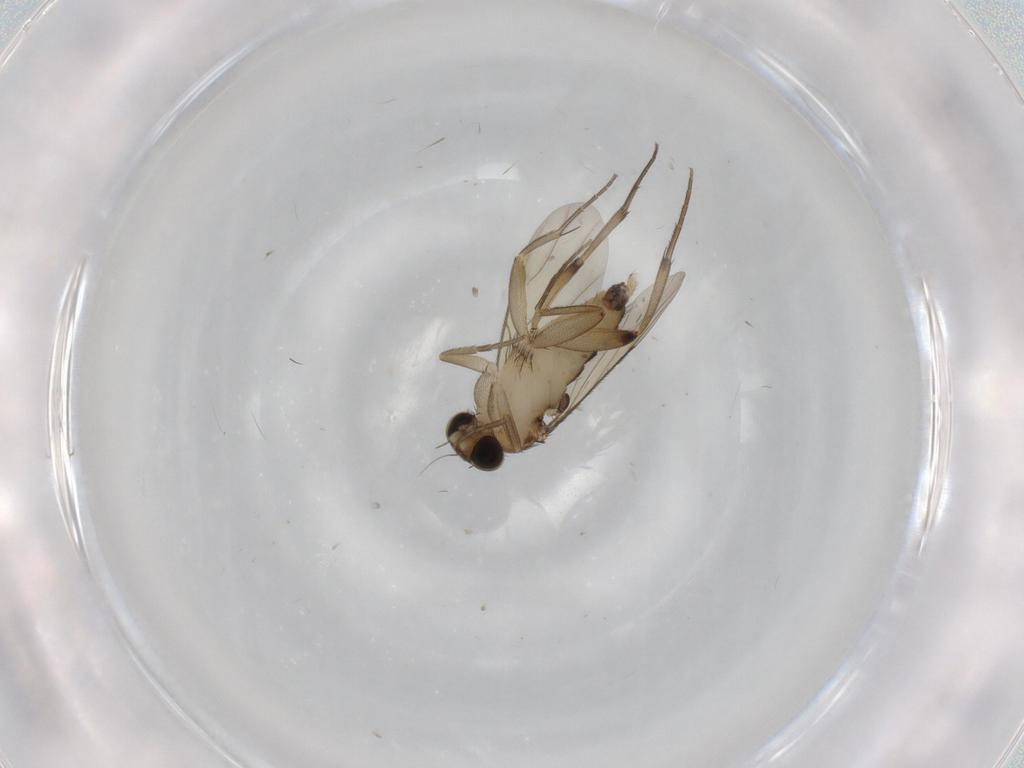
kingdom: Animalia
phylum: Arthropoda
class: Insecta
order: Diptera
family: Phoridae
